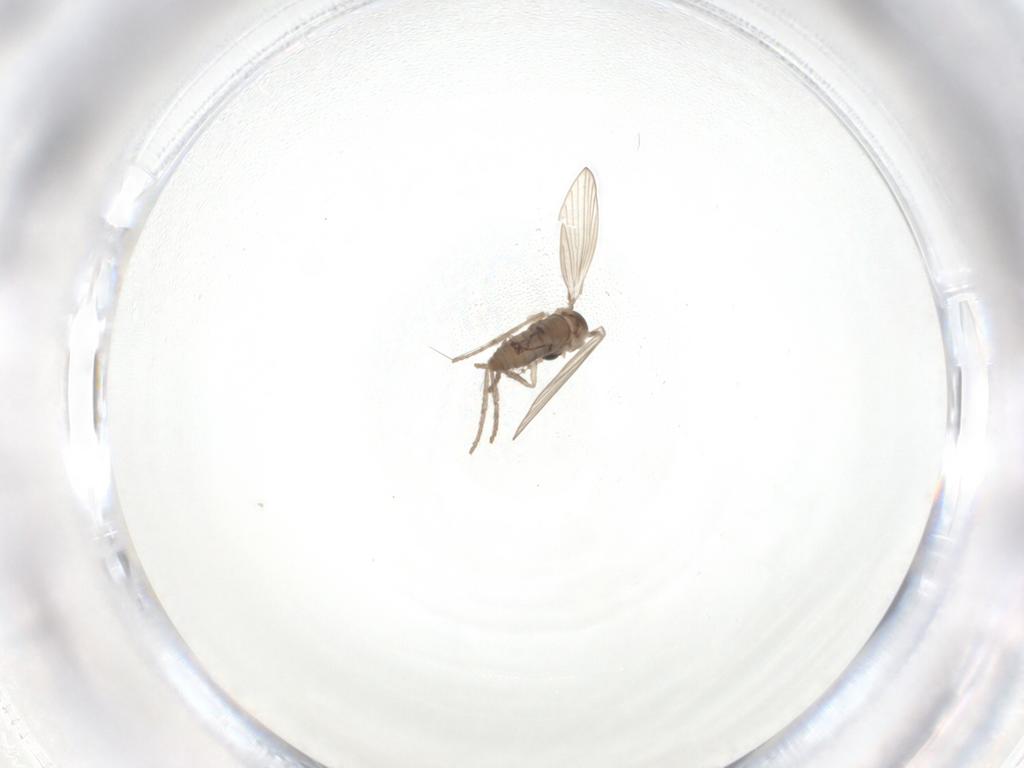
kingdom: Animalia
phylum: Arthropoda
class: Insecta
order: Diptera
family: Psychodidae
